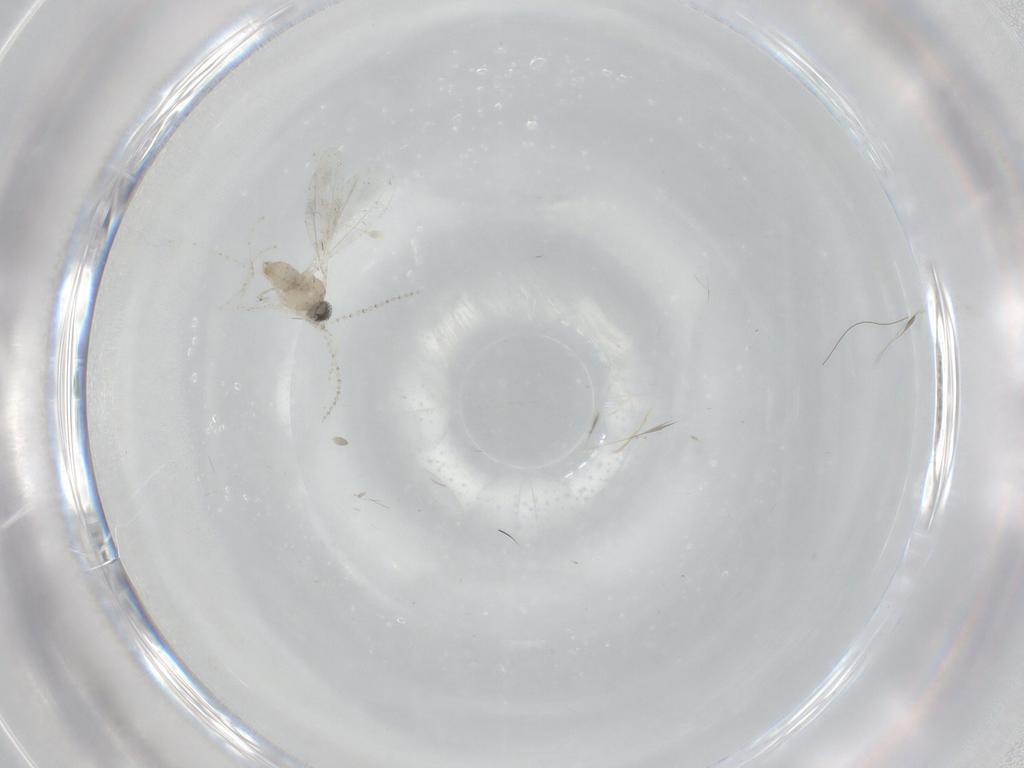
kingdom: Animalia
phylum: Arthropoda
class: Insecta
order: Diptera
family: Cecidomyiidae
